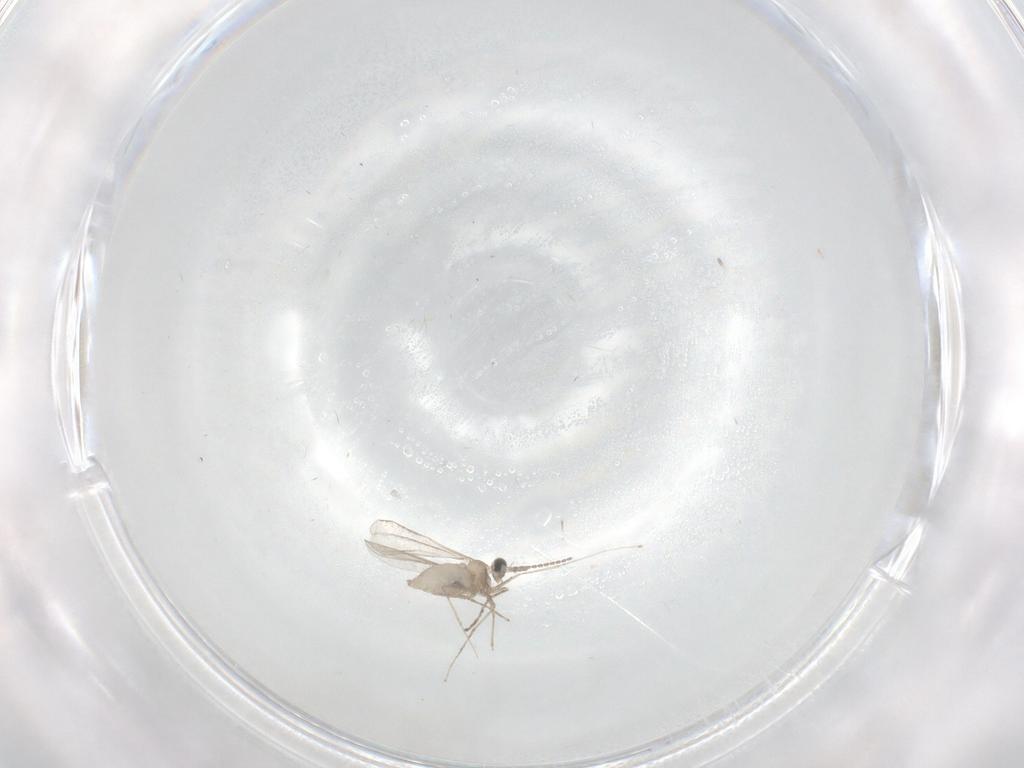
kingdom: Animalia
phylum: Arthropoda
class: Insecta
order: Diptera
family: Cecidomyiidae
